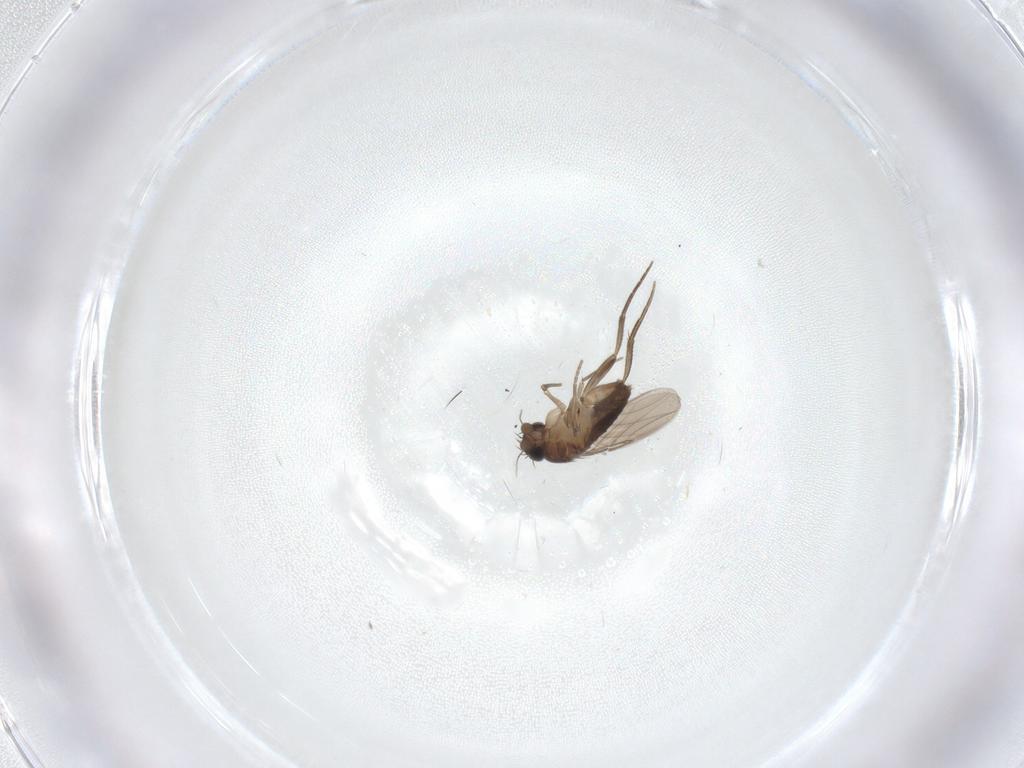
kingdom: Animalia
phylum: Arthropoda
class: Insecta
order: Diptera
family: Phoridae
